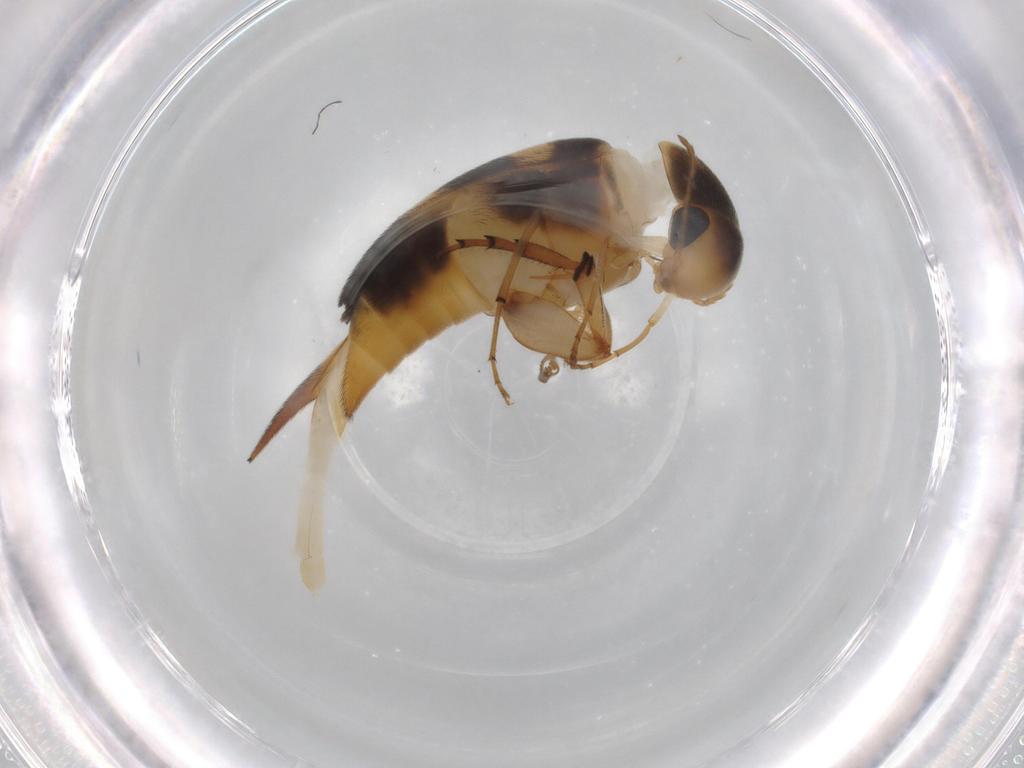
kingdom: Animalia
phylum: Arthropoda
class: Insecta
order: Coleoptera
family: Mordellidae
